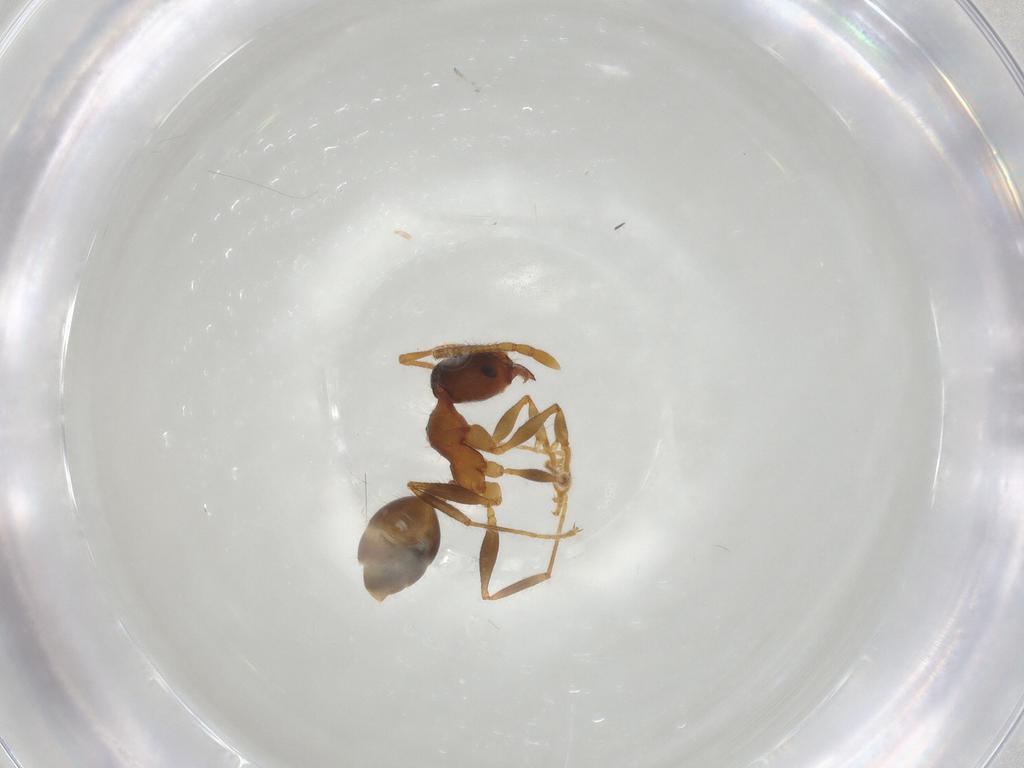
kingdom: Animalia
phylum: Arthropoda
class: Insecta
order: Hymenoptera
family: Formicidae
